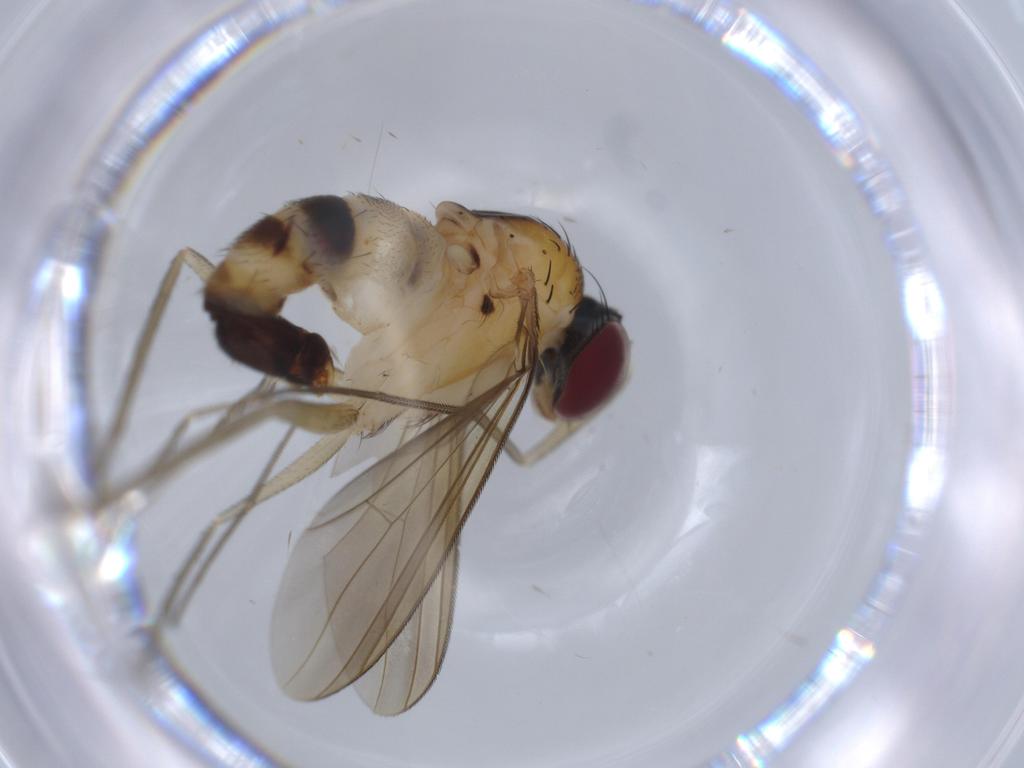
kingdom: Animalia
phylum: Arthropoda
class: Insecta
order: Diptera
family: Dolichopodidae
